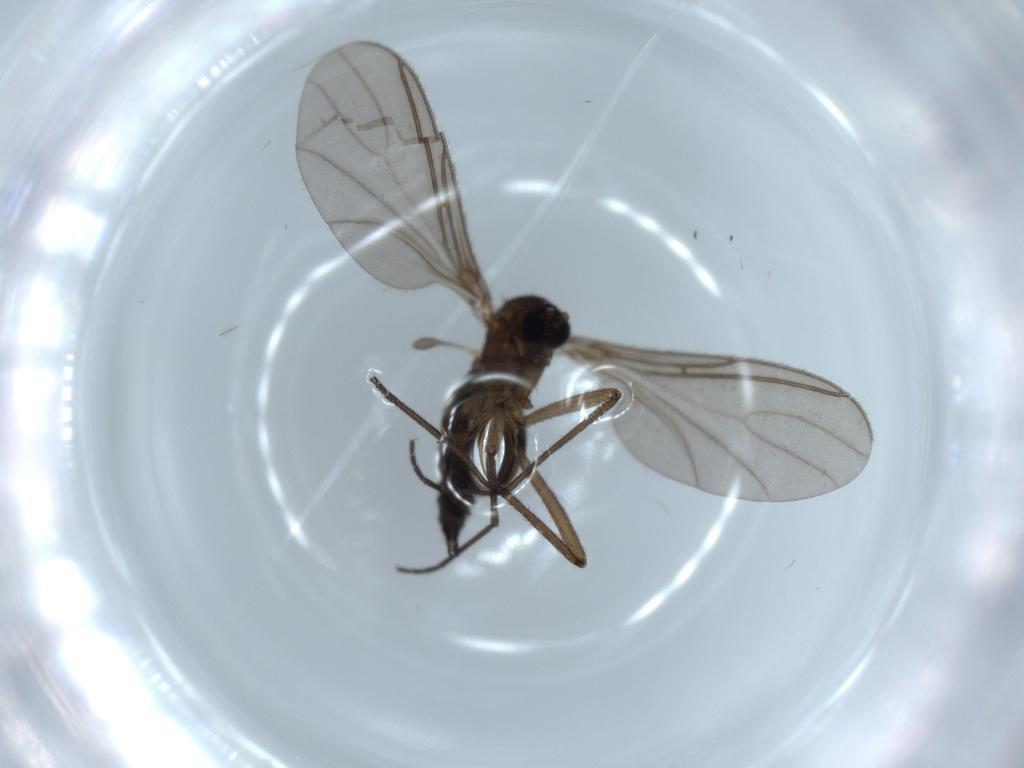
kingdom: Animalia
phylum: Arthropoda
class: Insecta
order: Diptera
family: Sciaridae
